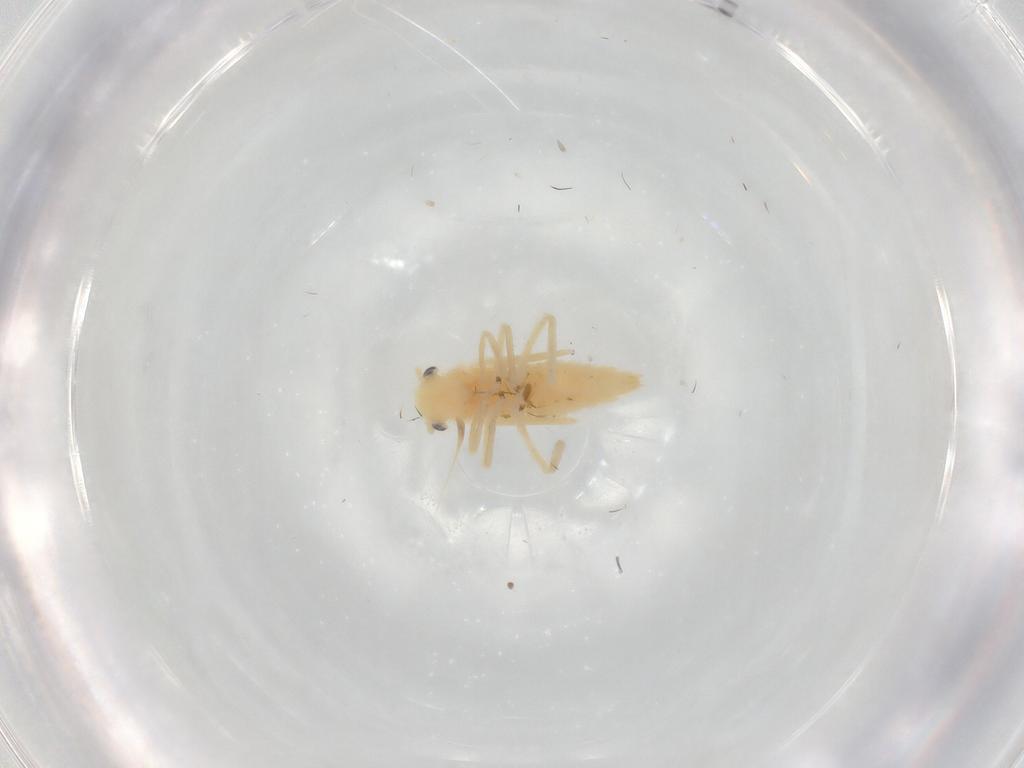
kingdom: Animalia
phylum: Arthropoda
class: Insecta
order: Hemiptera
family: Cicadellidae
